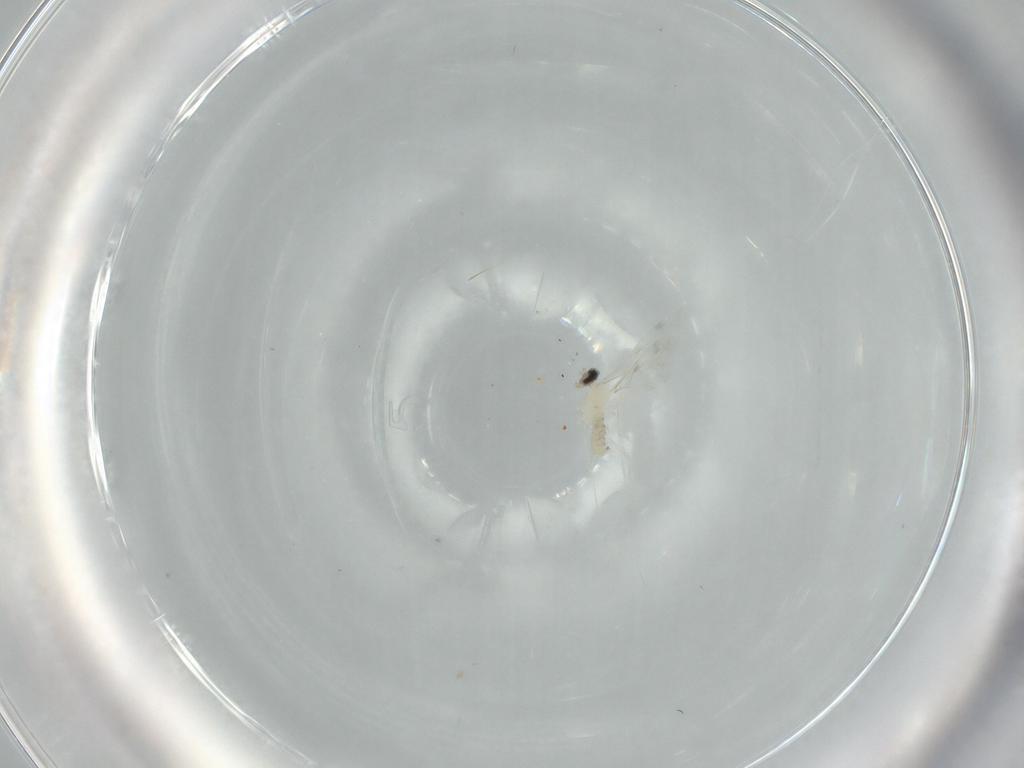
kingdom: Animalia
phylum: Arthropoda
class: Insecta
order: Diptera
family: Cecidomyiidae
